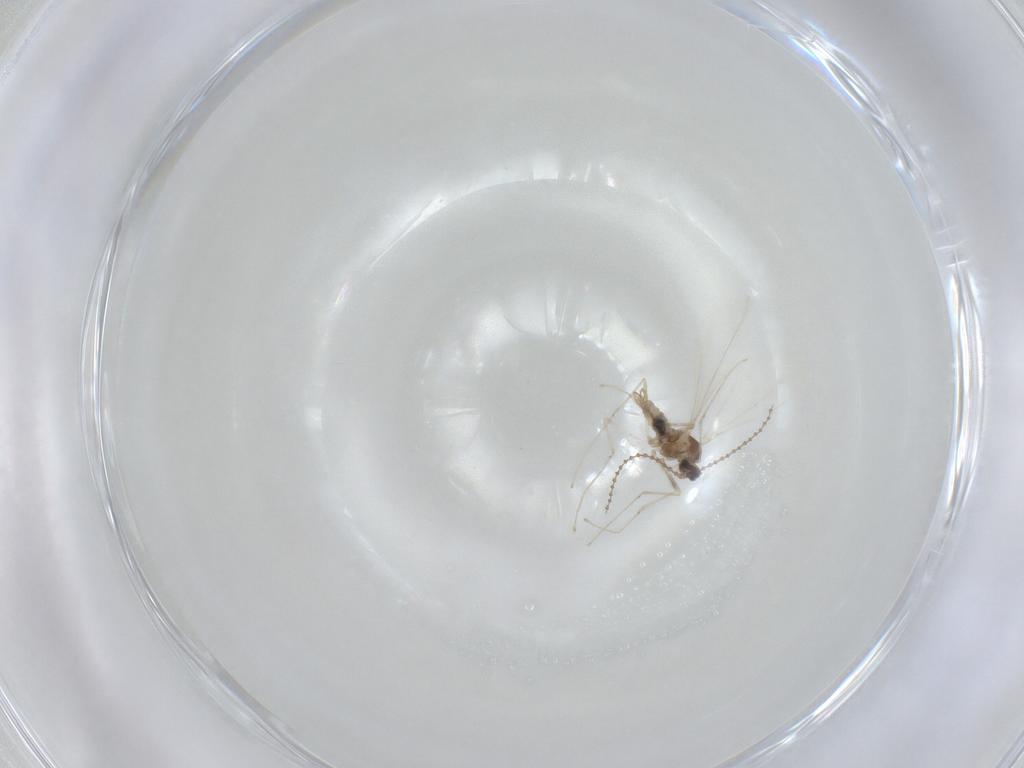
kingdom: Animalia
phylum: Arthropoda
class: Insecta
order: Diptera
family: Cecidomyiidae
